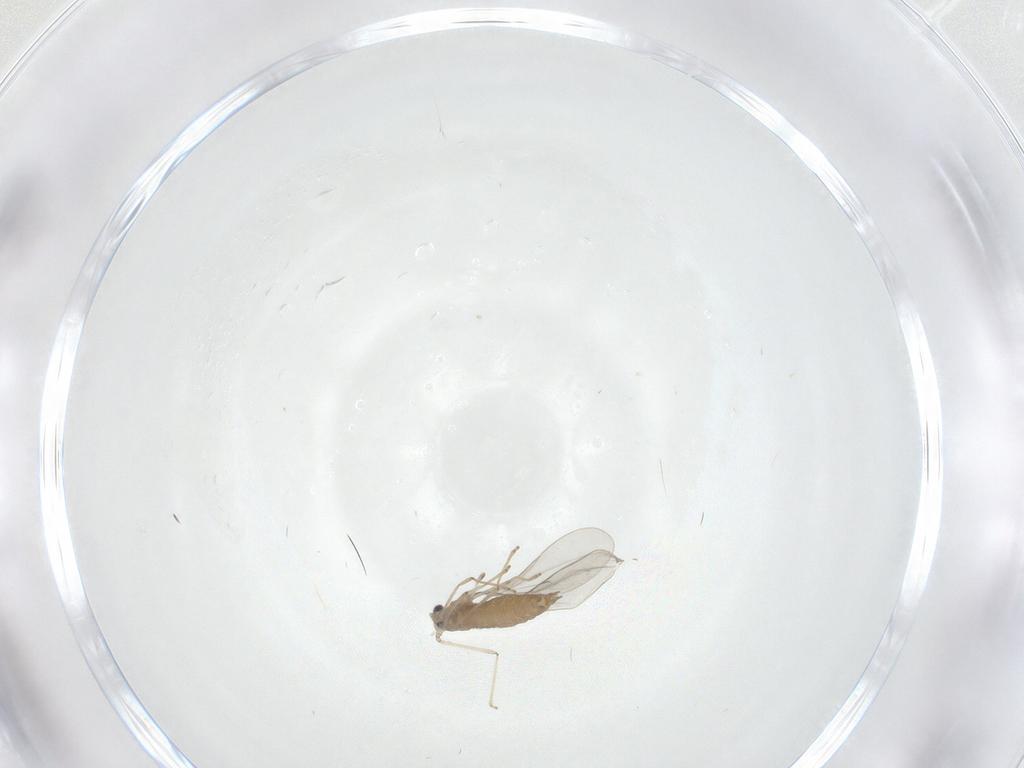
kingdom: Animalia
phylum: Arthropoda
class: Insecta
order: Diptera
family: Cecidomyiidae
